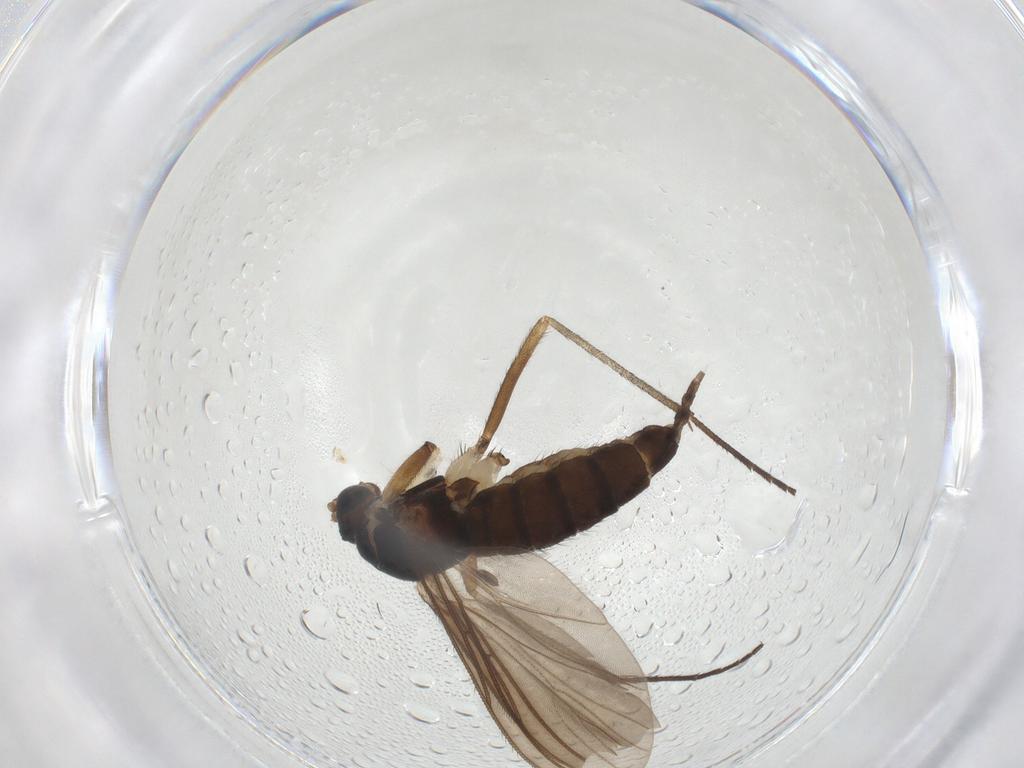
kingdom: Animalia
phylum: Arthropoda
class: Insecta
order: Diptera
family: Sciaridae
